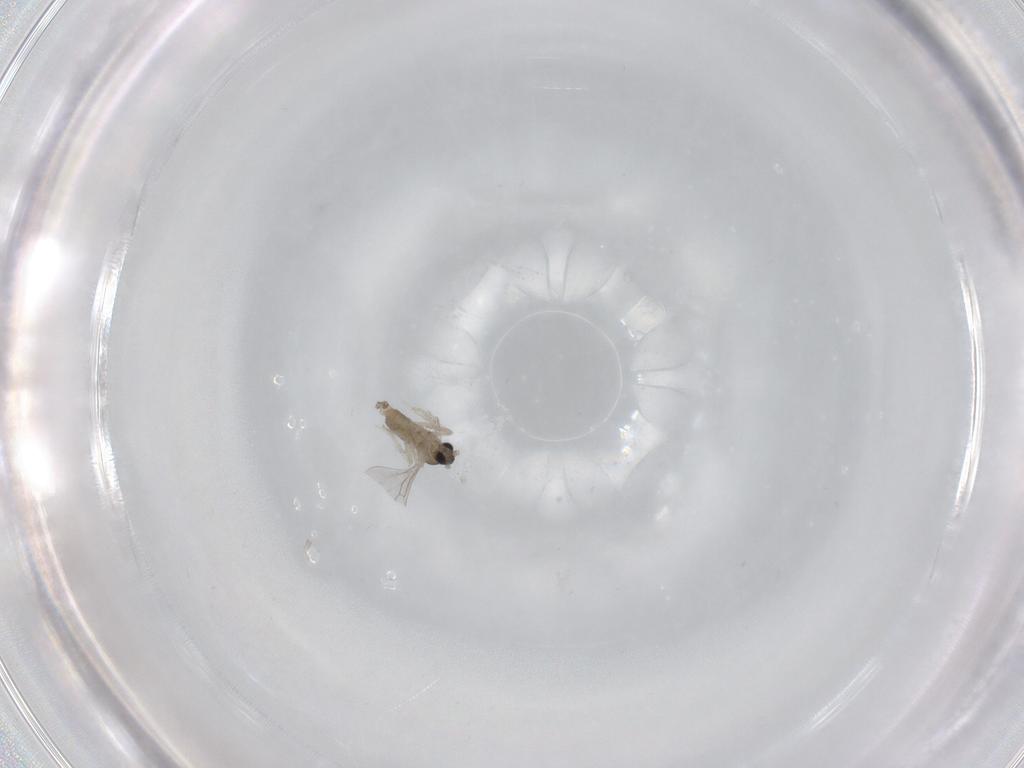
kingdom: Animalia
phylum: Arthropoda
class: Insecta
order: Diptera
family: Cecidomyiidae
